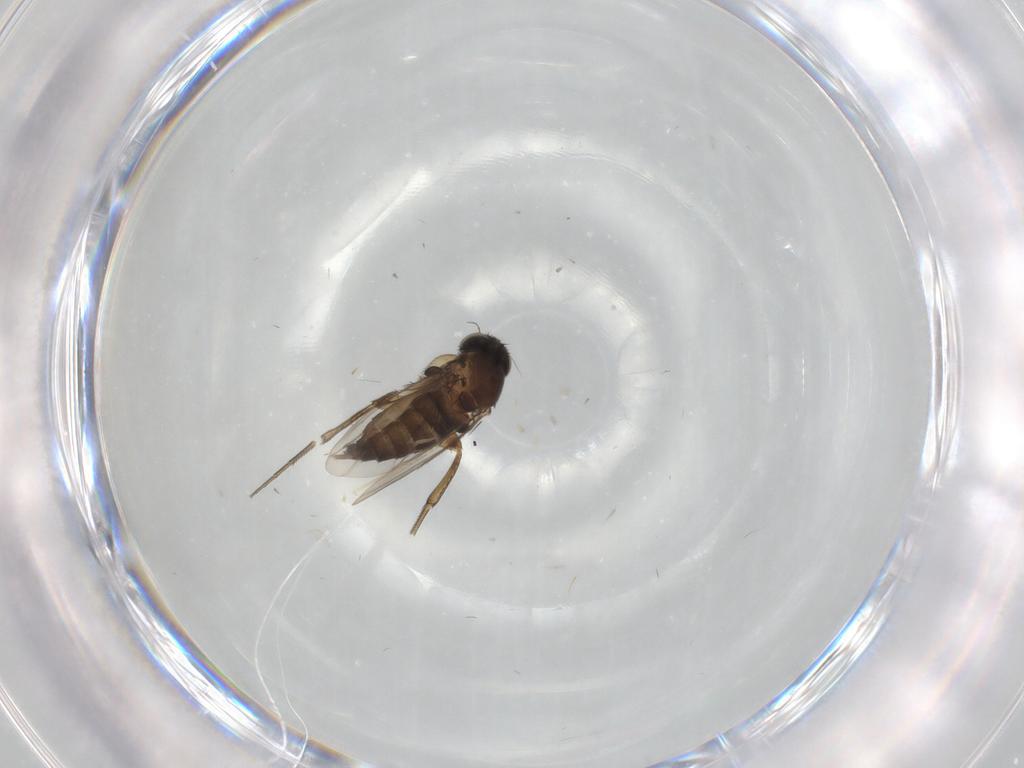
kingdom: Animalia
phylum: Arthropoda
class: Insecta
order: Diptera
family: Phoridae
